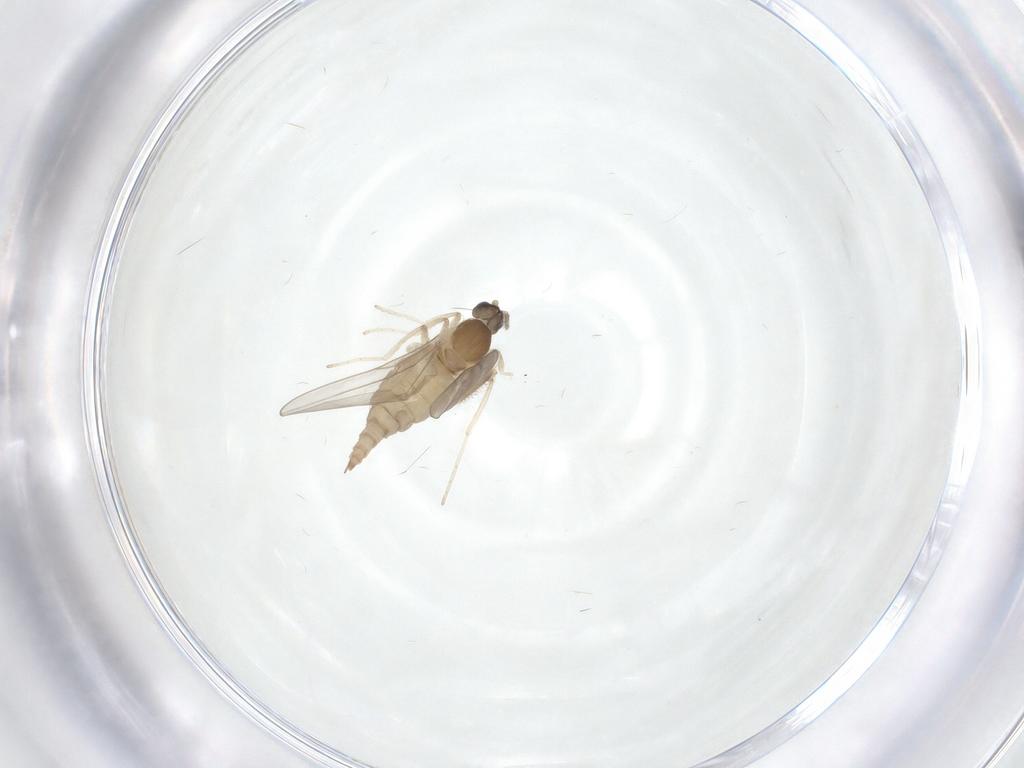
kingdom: Animalia
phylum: Arthropoda
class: Insecta
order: Diptera
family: Cecidomyiidae
